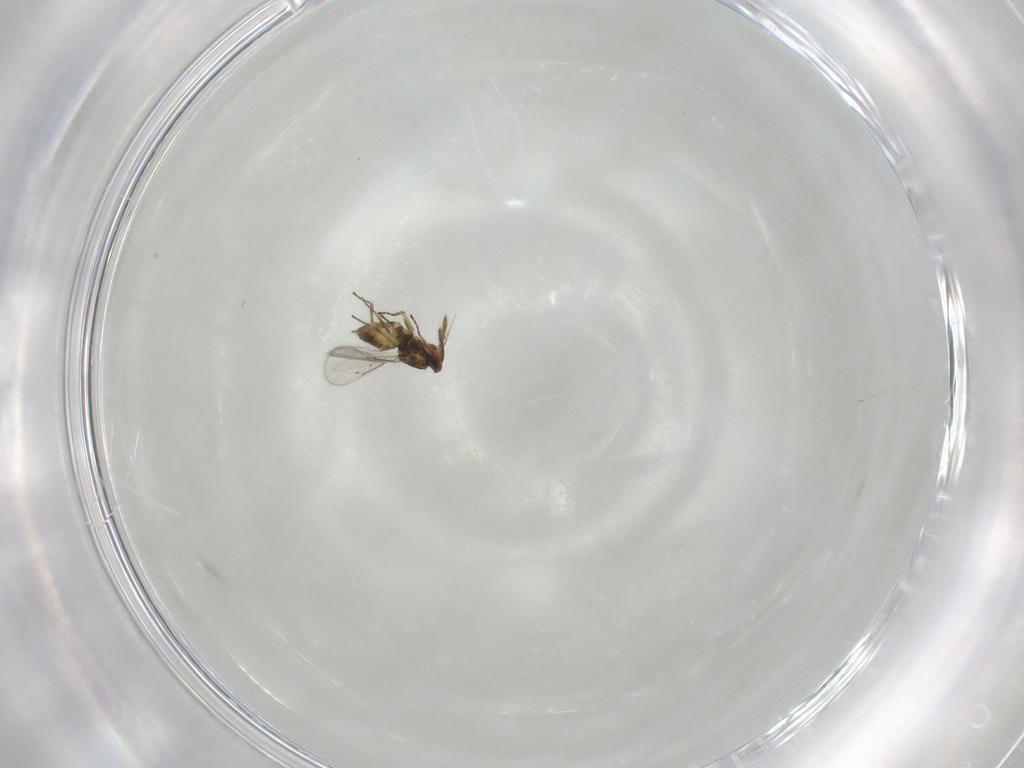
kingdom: Animalia
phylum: Arthropoda
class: Insecta
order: Hymenoptera
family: Eulophidae
